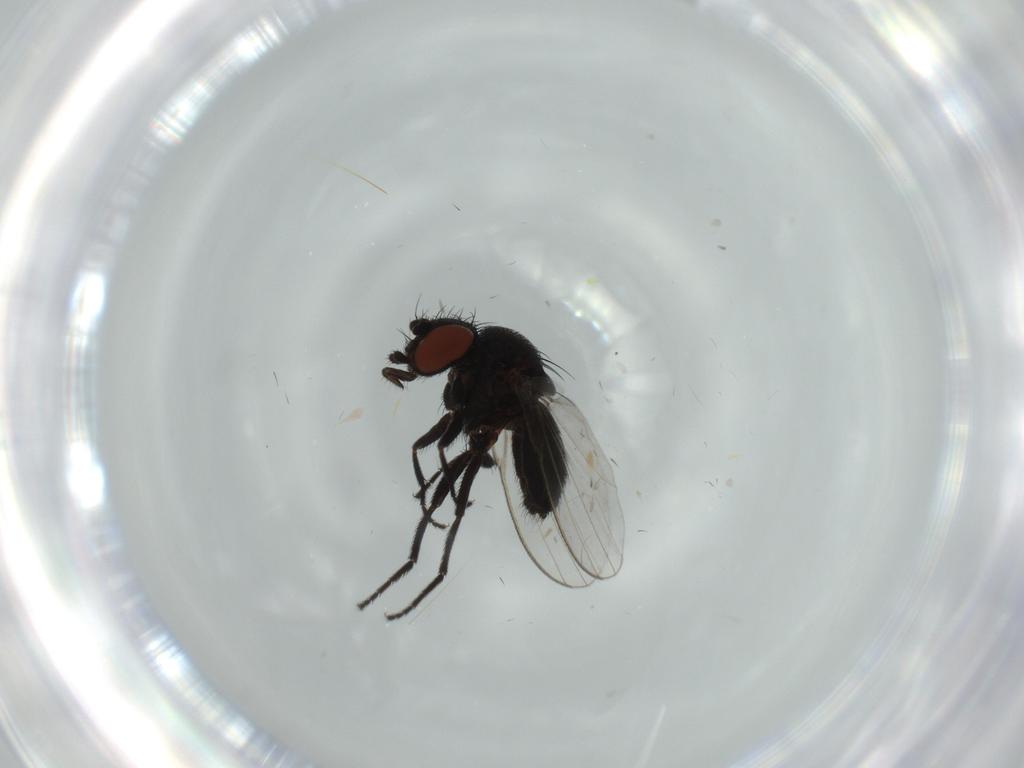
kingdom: Animalia
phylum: Arthropoda
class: Insecta
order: Diptera
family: Milichiidae
